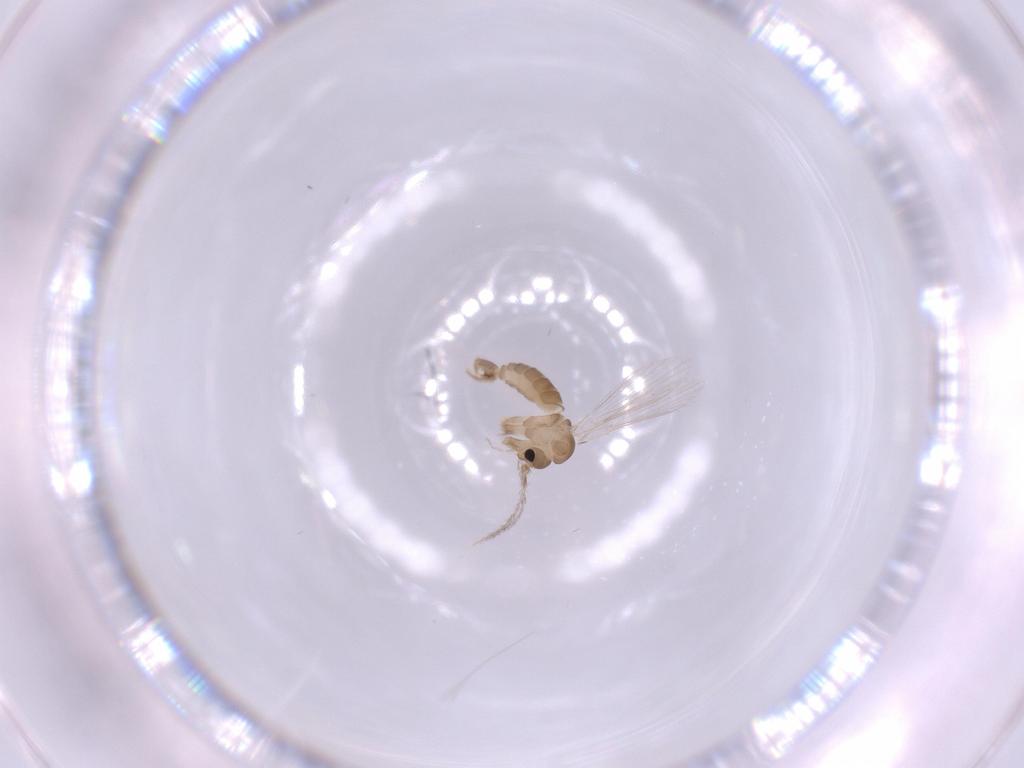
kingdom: Animalia
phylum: Arthropoda
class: Insecta
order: Diptera
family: Psychodidae
